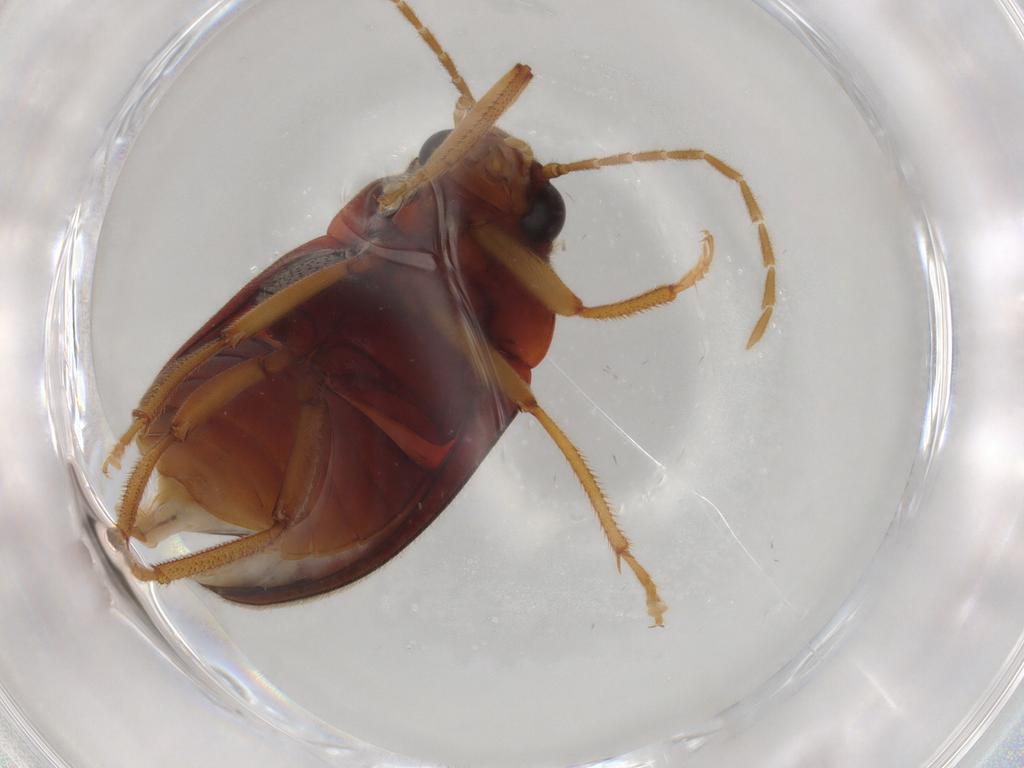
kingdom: Animalia
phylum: Arthropoda
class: Insecta
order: Coleoptera
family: Ptilodactylidae
